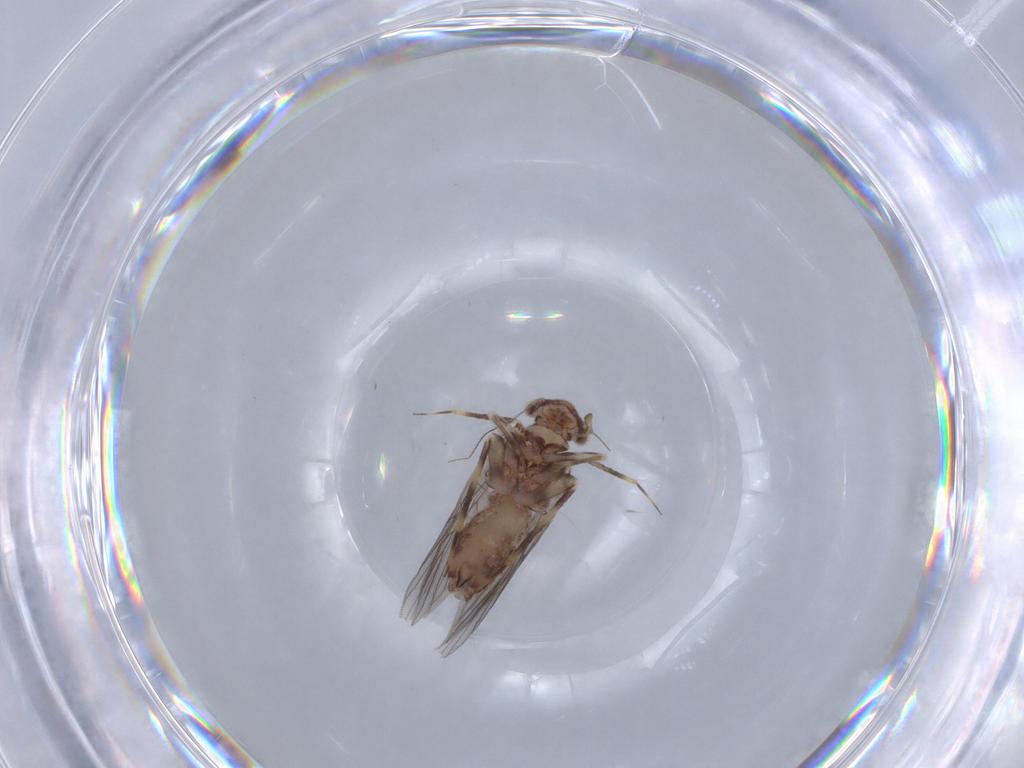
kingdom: Animalia
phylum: Arthropoda
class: Insecta
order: Psocodea
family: Lepidopsocidae
